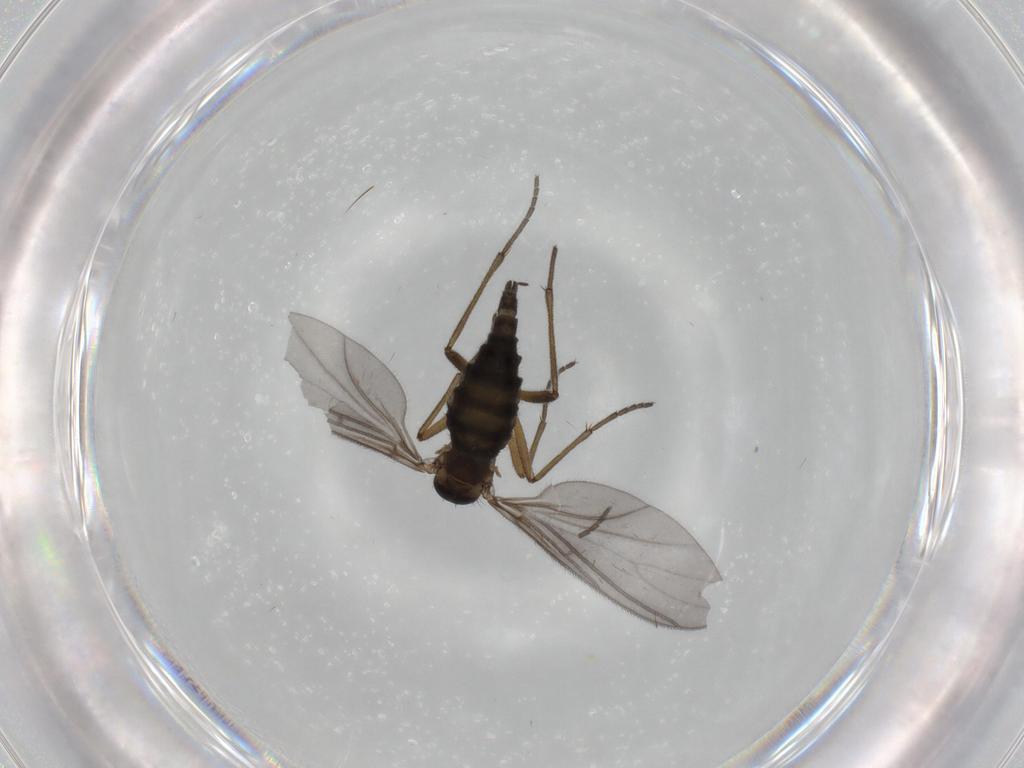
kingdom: Animalia
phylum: Arthropoda
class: Insecta
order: Diptera
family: Sciaridae
